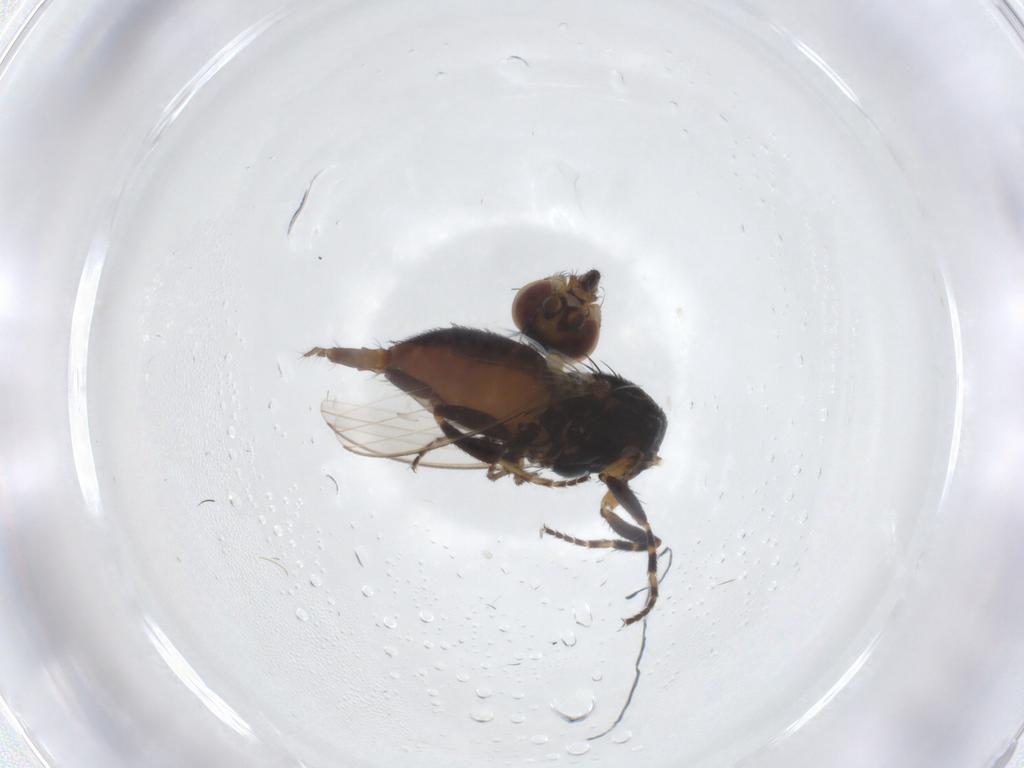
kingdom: Animalia
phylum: Arthropoda
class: Insecta
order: Diptera
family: Milichiidae
